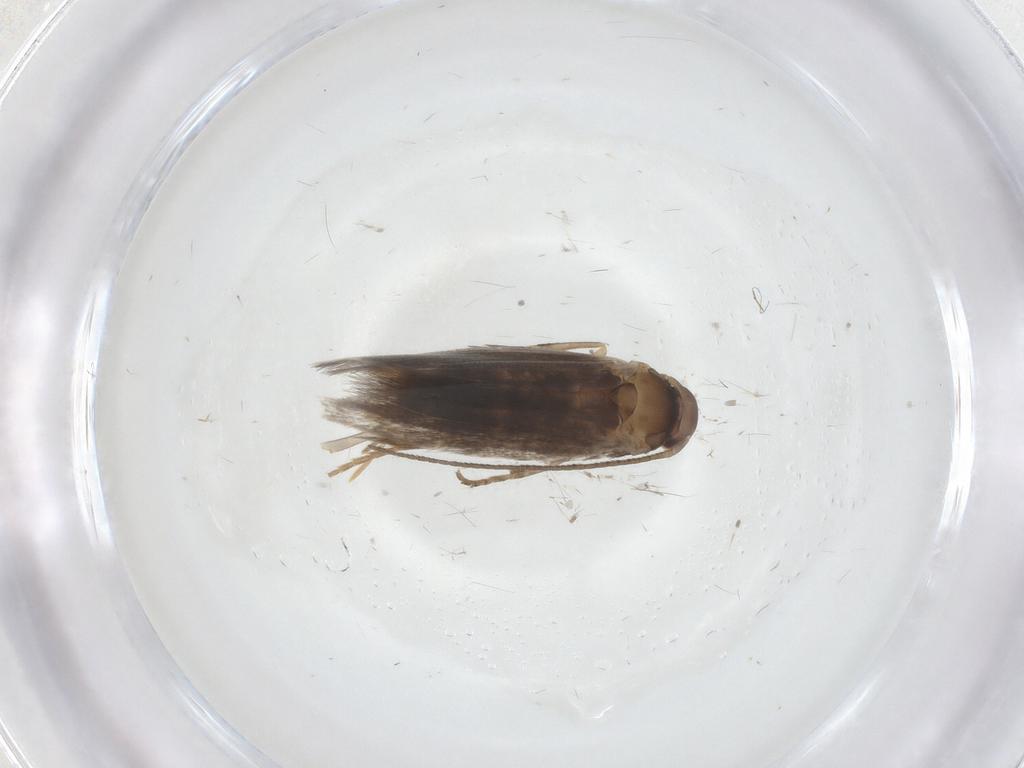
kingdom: Animalia
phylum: Arthropoda
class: Insecta
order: Lepidoptera
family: Elachistidae
